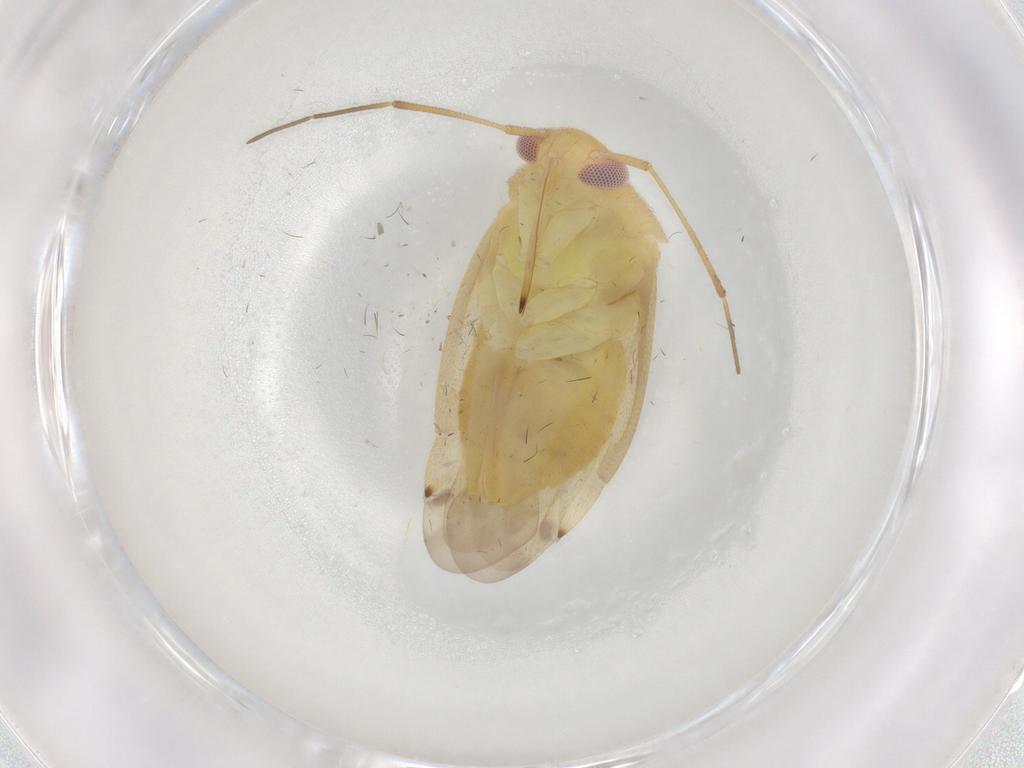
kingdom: Animalia
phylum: Arthropoda
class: Insecta
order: Hemiptera
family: Miridae
